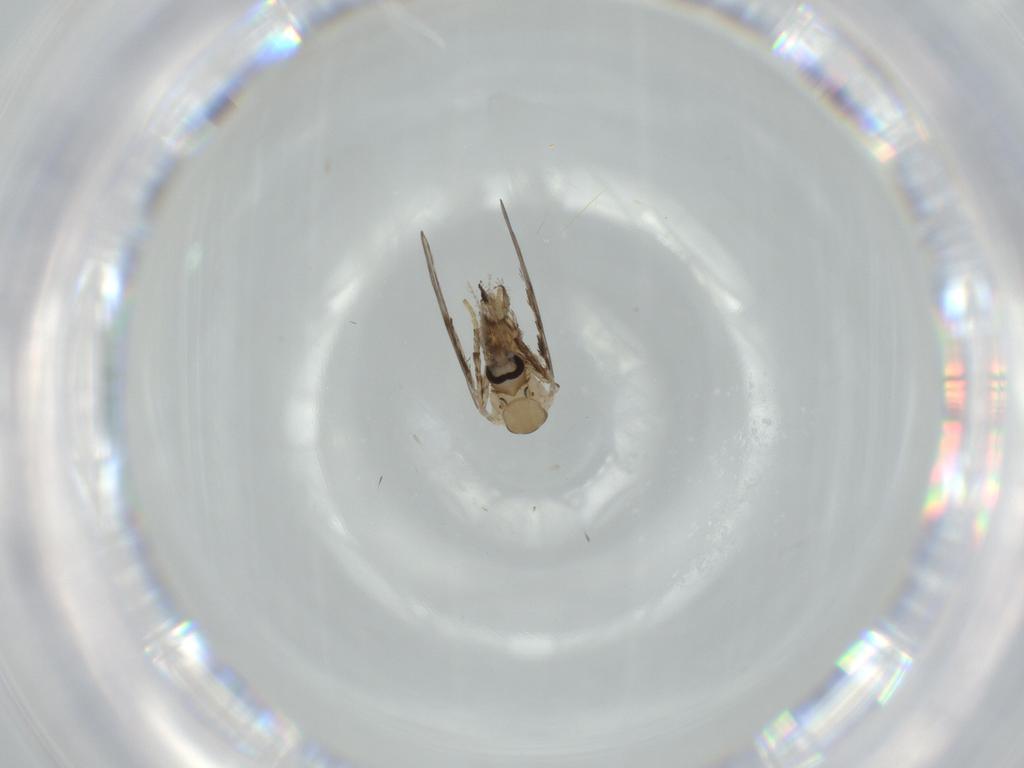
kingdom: Animalia
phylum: Arthropoda
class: Insecta
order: Diptera
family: Sciaridae
